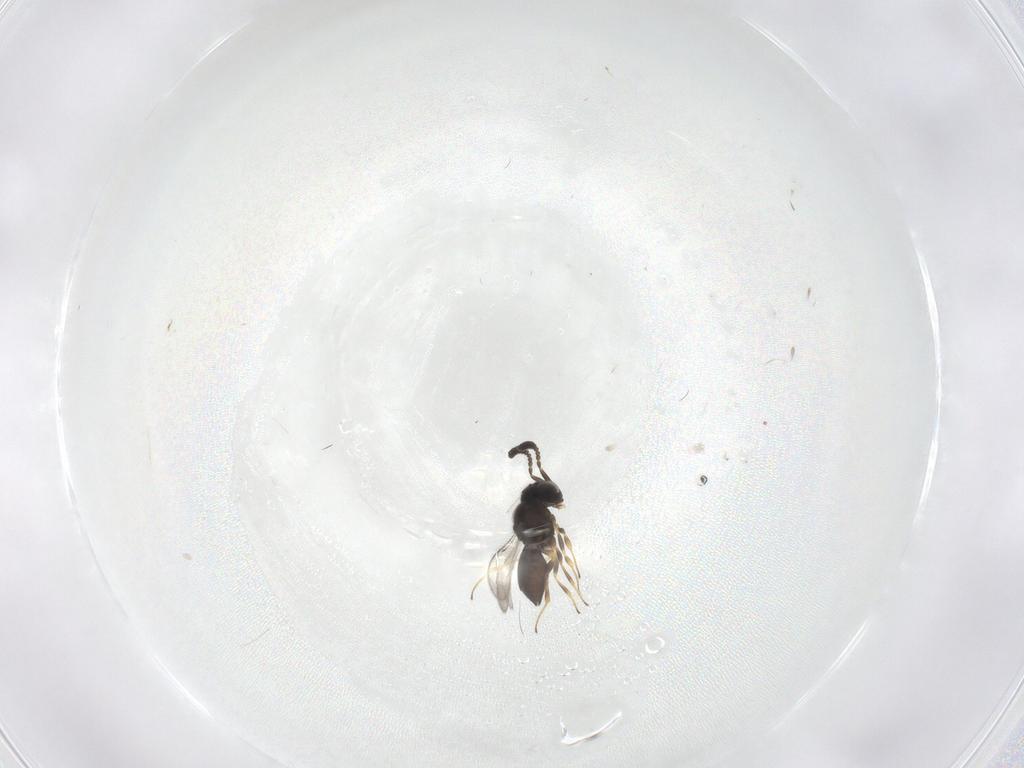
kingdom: Animalia
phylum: Arthropoda
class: Insecta
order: Hymenoptera
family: Scelionidae
